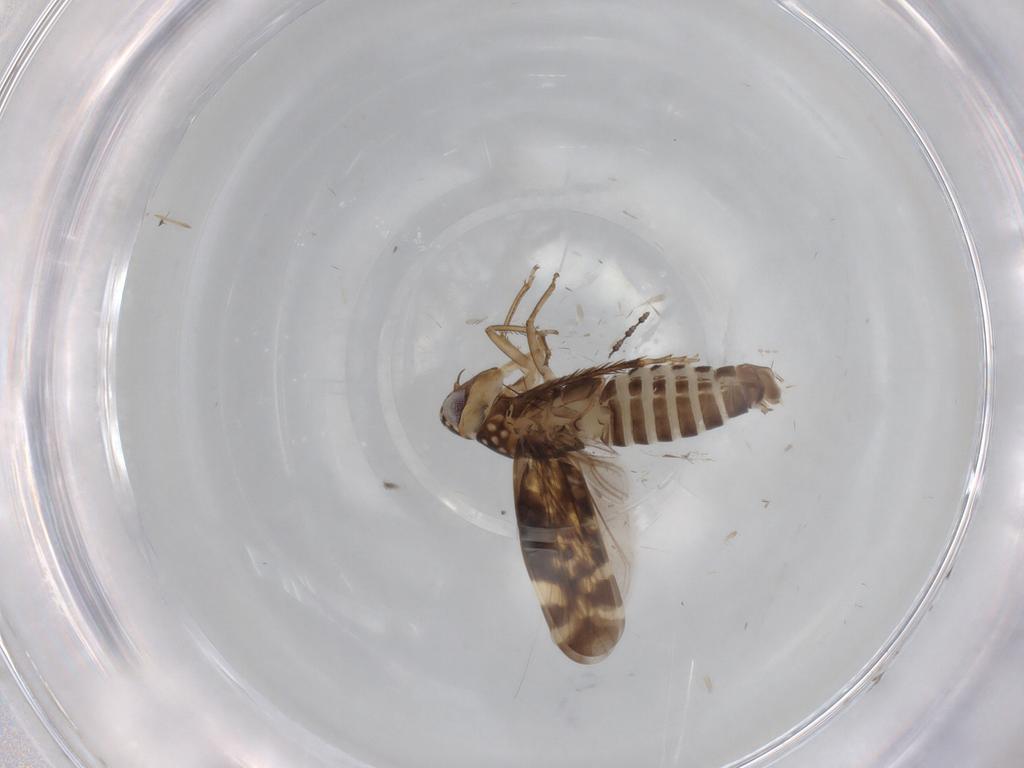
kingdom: Animalia
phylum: Arthropoda
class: Insecta
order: Hemiptera
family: Cicadellidae
